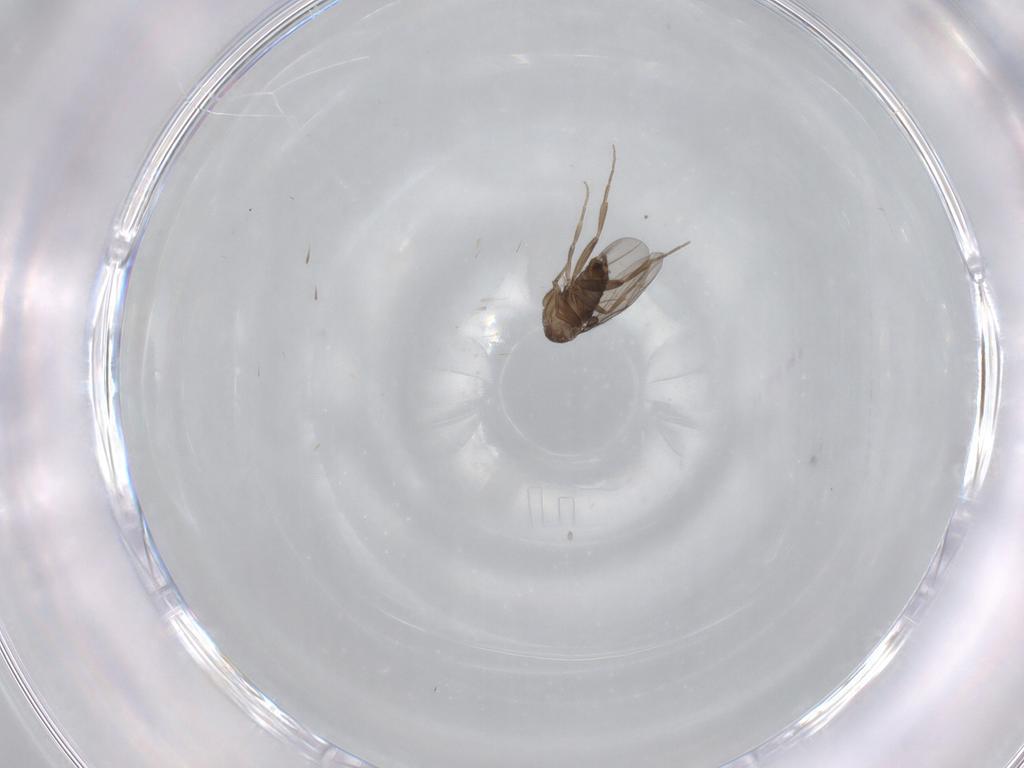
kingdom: Animalia
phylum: Arthropoda
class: Insecta
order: Diptera
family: Phoridae
